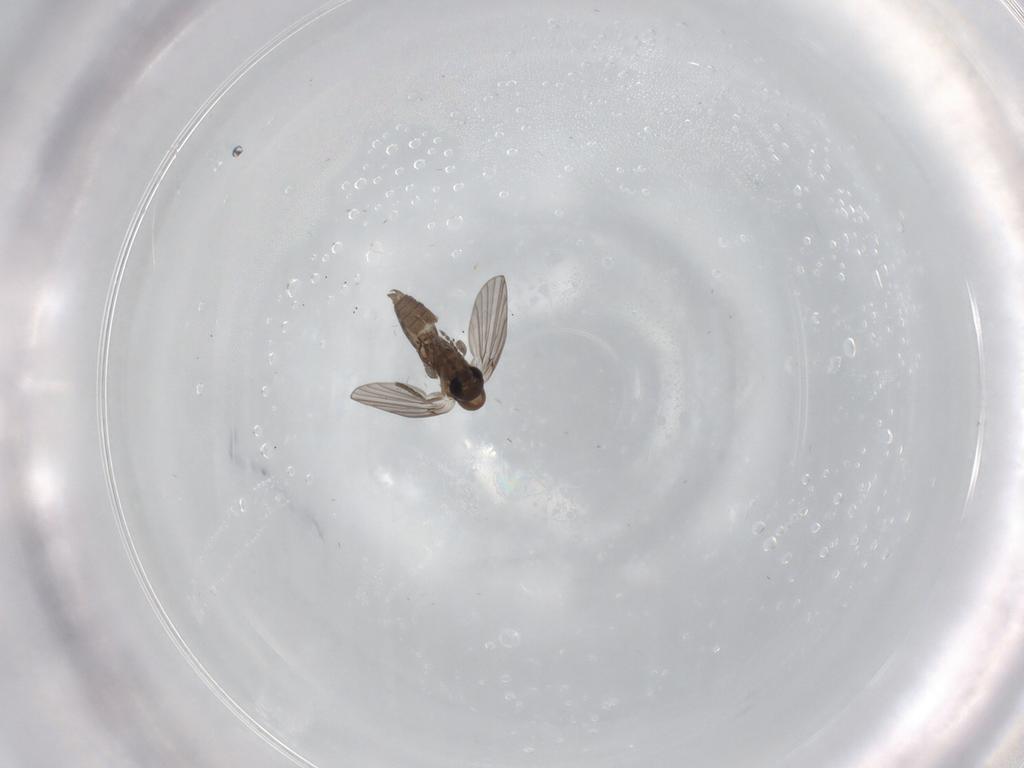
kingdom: Animalia
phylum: Arthropoda
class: Insecta
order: Diptera
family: Psychodidae
